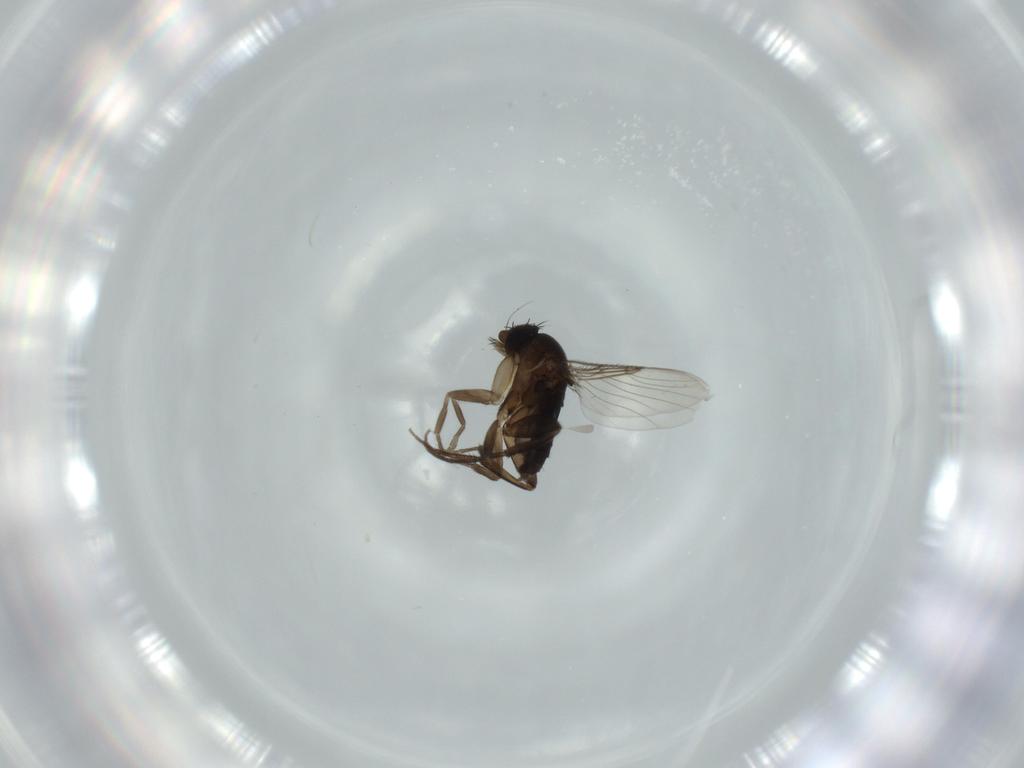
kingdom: Animalia
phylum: Arthropoda
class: Insecta
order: Diptera
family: Phoridae
